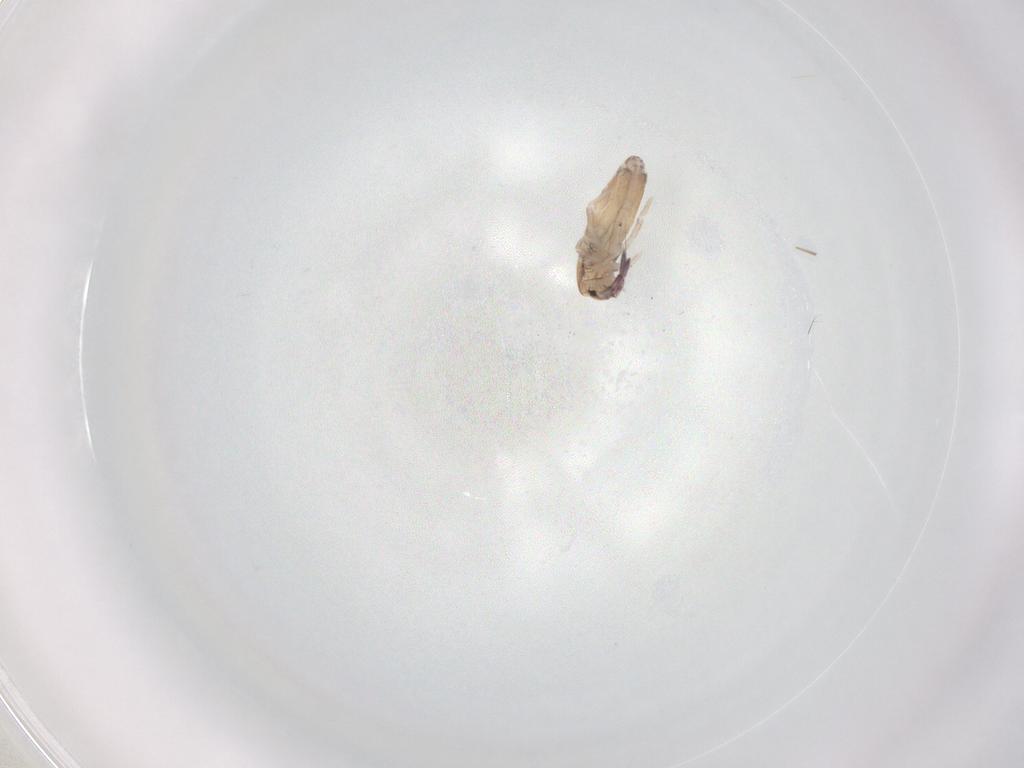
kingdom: Animalia
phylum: Arthropoda
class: Collembola
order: Entomobryomorpha
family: Entomobryidae
